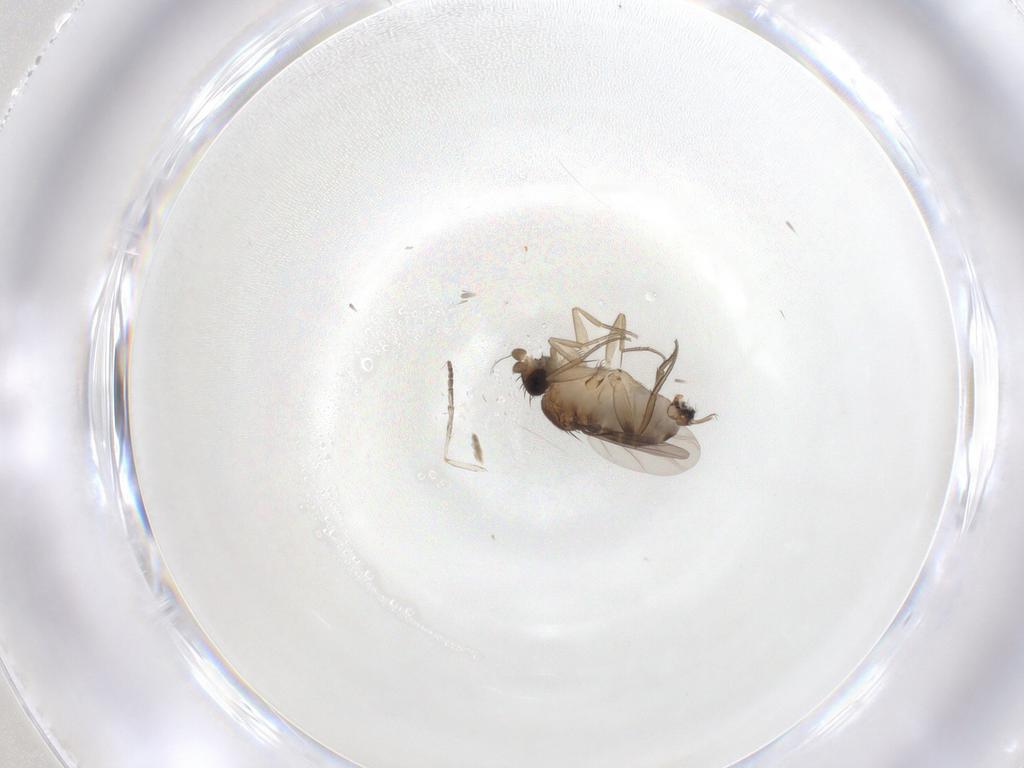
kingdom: Animalia
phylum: Arthropoda
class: Insecta
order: Diptera
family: Phoridae
